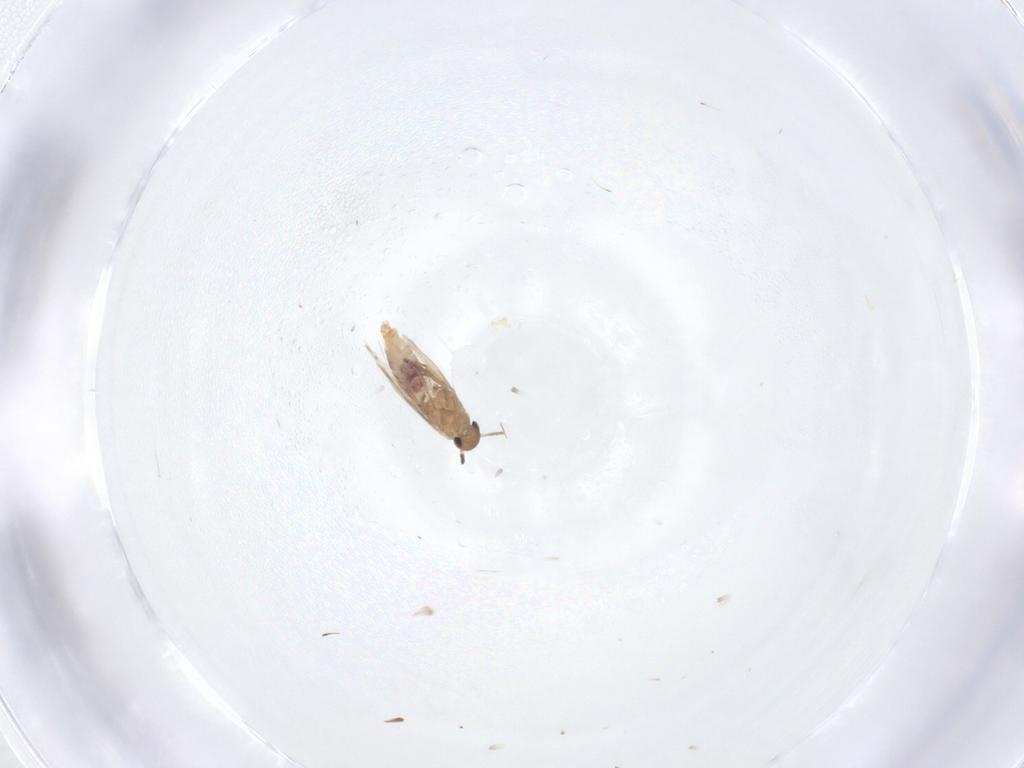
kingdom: Animalia
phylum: Arthropoda
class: Insecta
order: Lepidoptera
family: Heliozelidae
